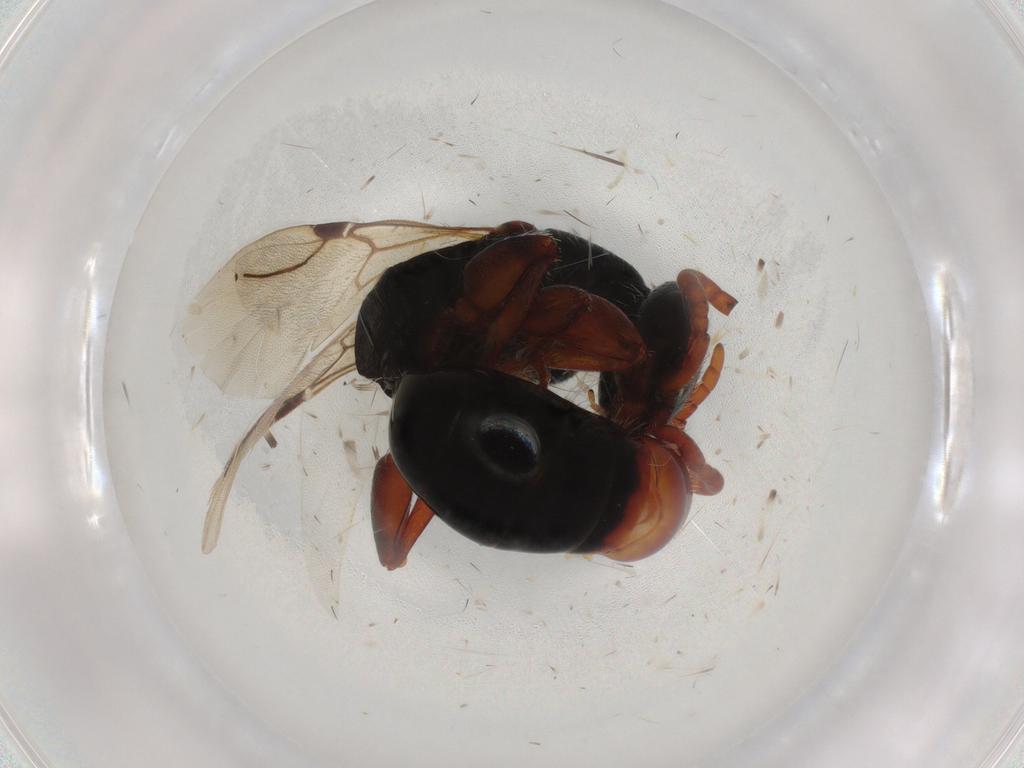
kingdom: Animalia
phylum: Arthropoda
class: Insecta
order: Hymenoptera
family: Bethylidae
